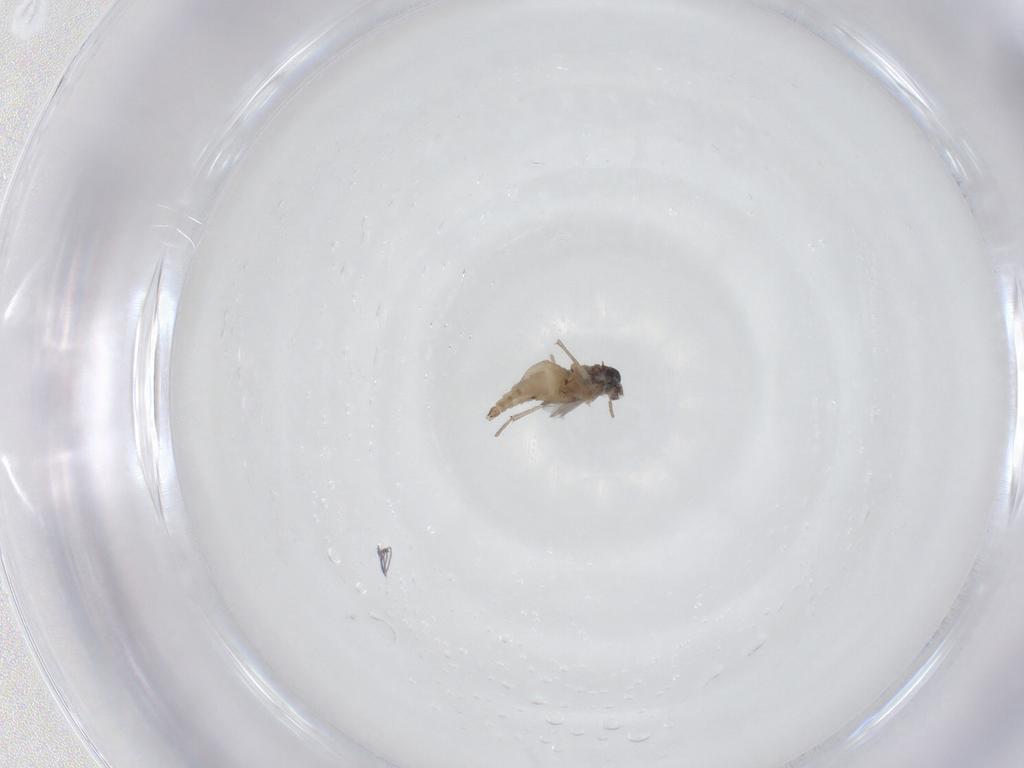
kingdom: Animalia
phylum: Arthropoda
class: Insecta
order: Diptera
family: Sciaridae
